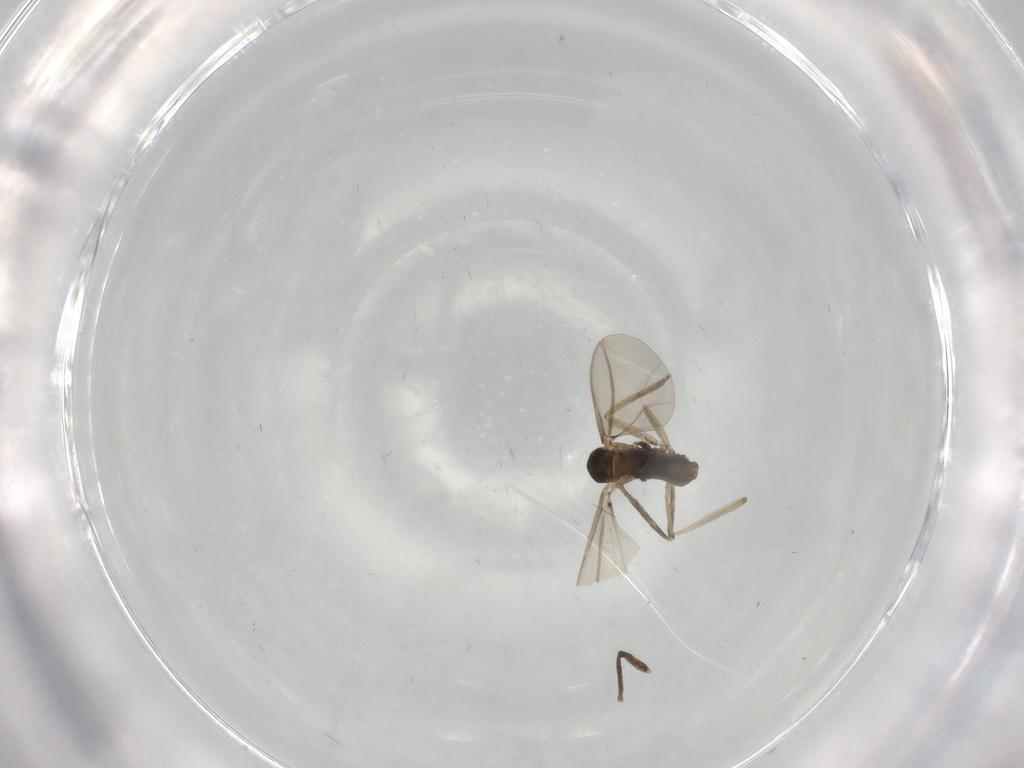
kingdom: Animalia
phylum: Arthropoda
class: Insecta
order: Diptera
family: Cecidomyiidae
